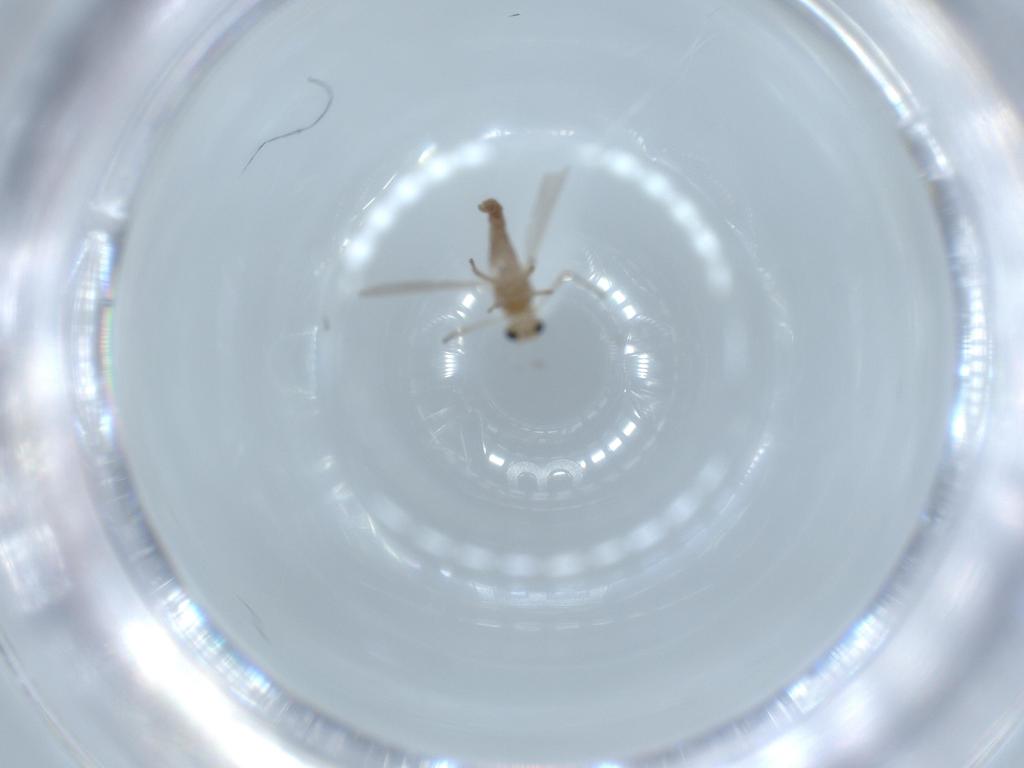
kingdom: Animalia
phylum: Arthropoda
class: Insecta
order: Diptera
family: Chironomidae
